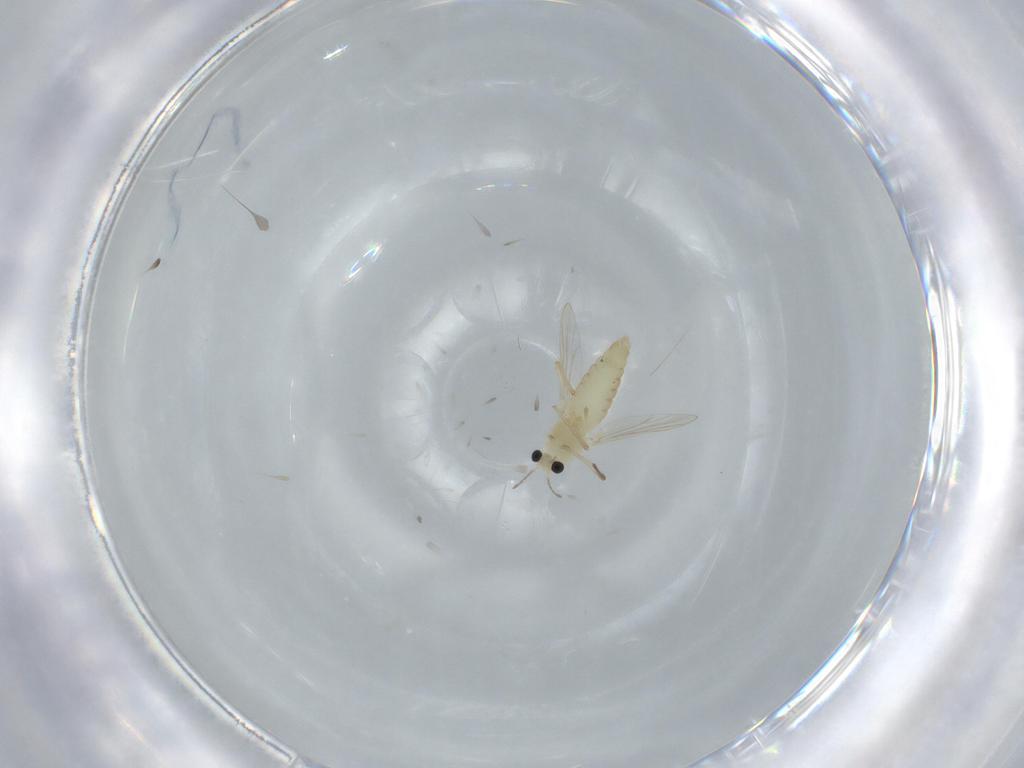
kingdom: Animalia
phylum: Arthropoda
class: Insecta
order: Diptera
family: Chironomidae
